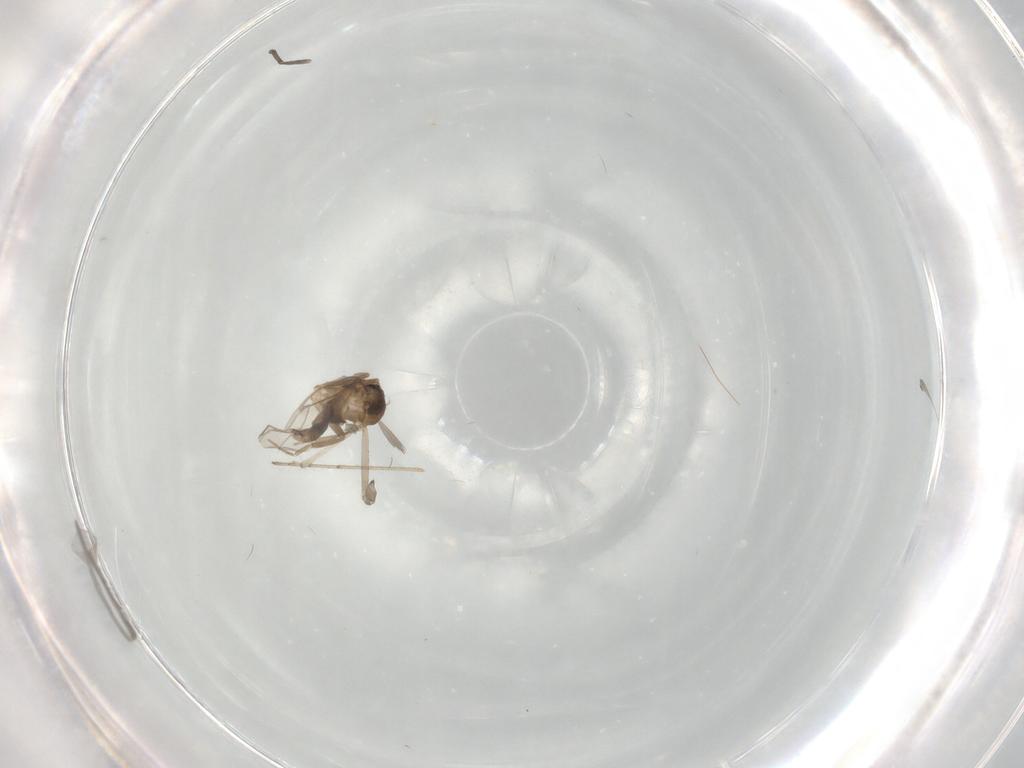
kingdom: Animalia
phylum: Arthropoda
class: Insecta
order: Diptera
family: Cecidomyiidae
